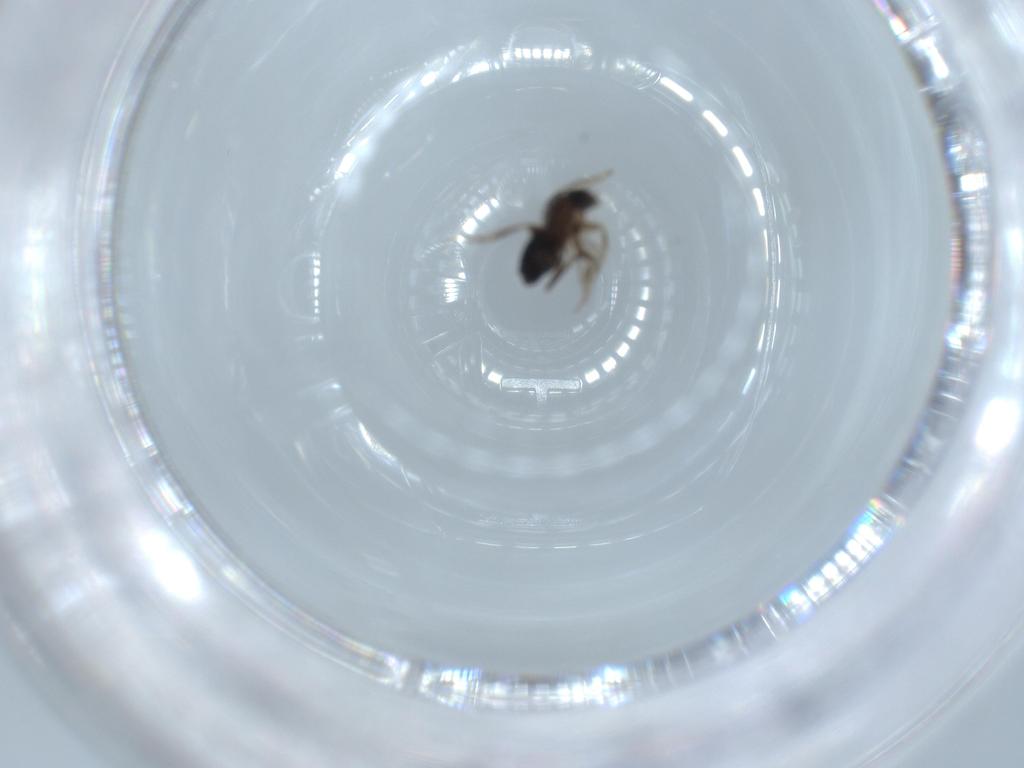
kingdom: Animalia
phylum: Arthropoda
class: Insecta
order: Diptera
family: Phoridae
